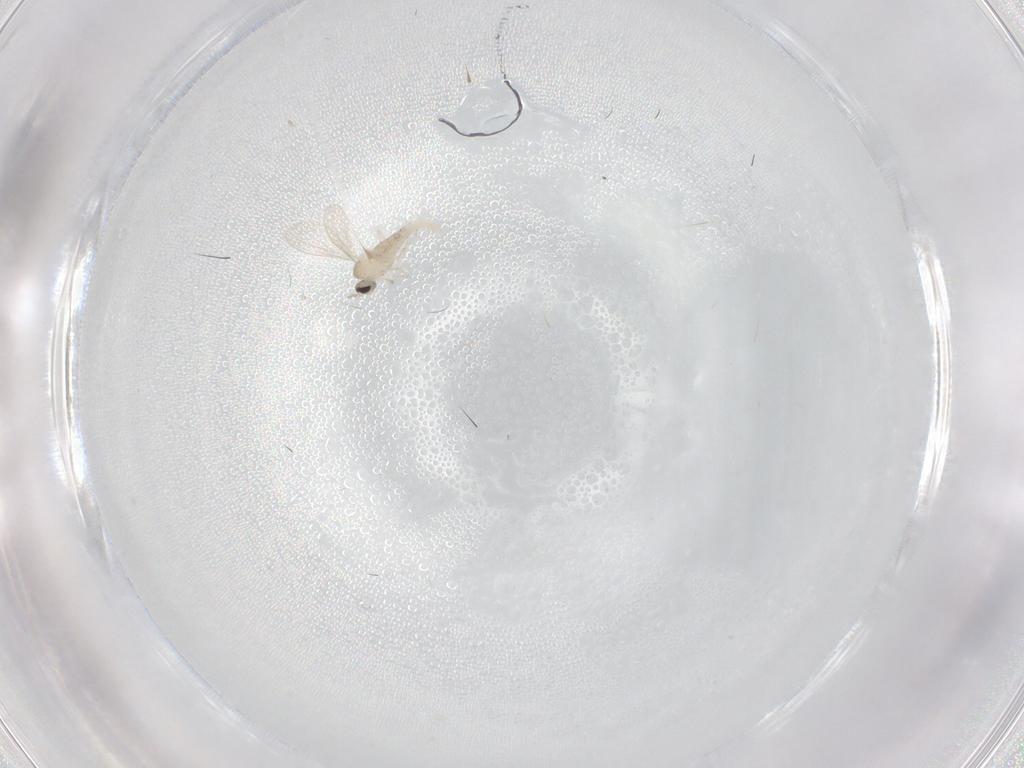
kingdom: Animalia
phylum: Arthropoda
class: Insecta
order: Diptera
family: Cecidomyiidae
